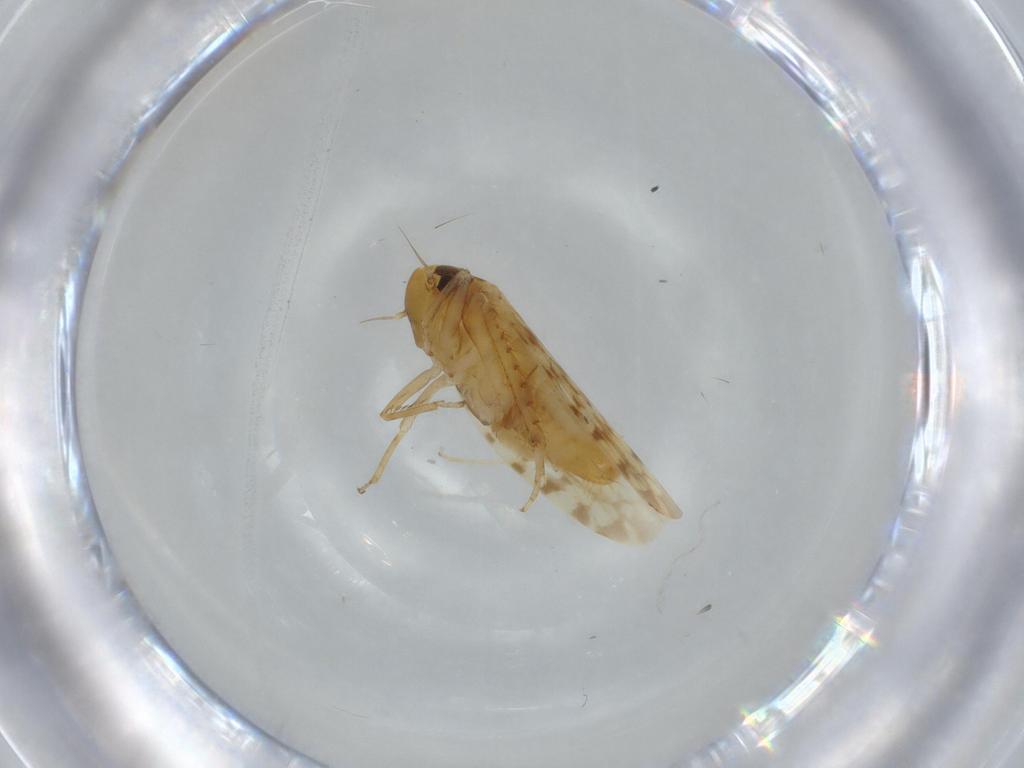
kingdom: Animalia
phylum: Arthropoda
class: Insecta
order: Hemiptera
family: Cicadellidae
